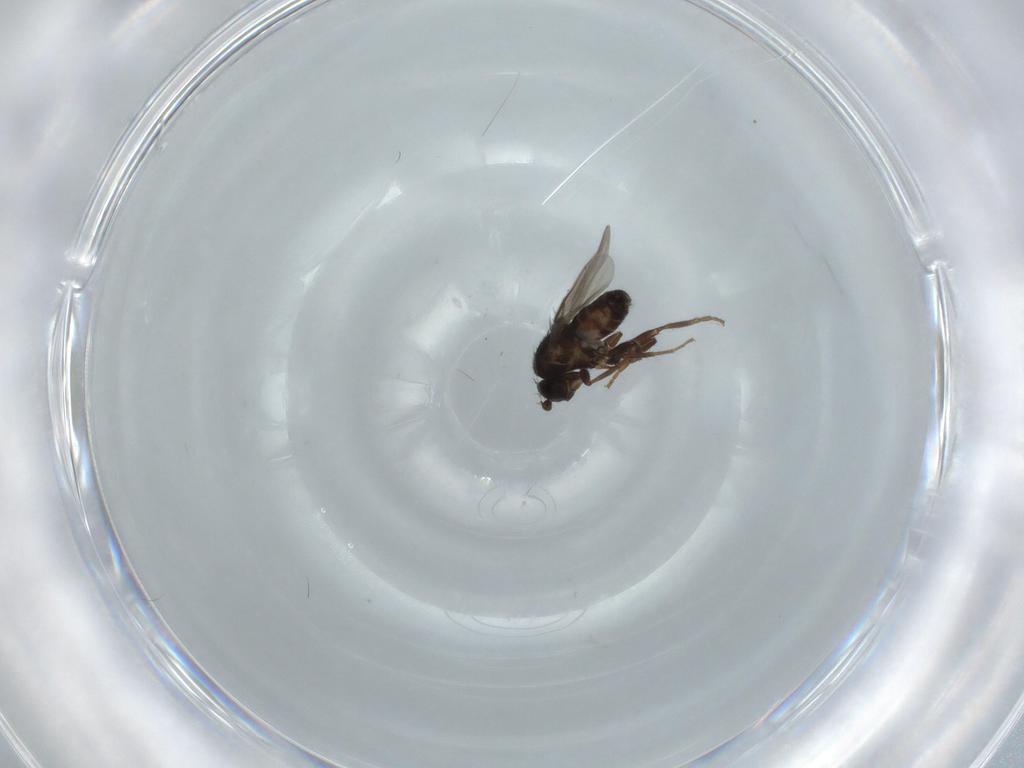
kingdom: Animalia
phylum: Arthropoda
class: Insecta
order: Diptera
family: Sphaeroceridae
